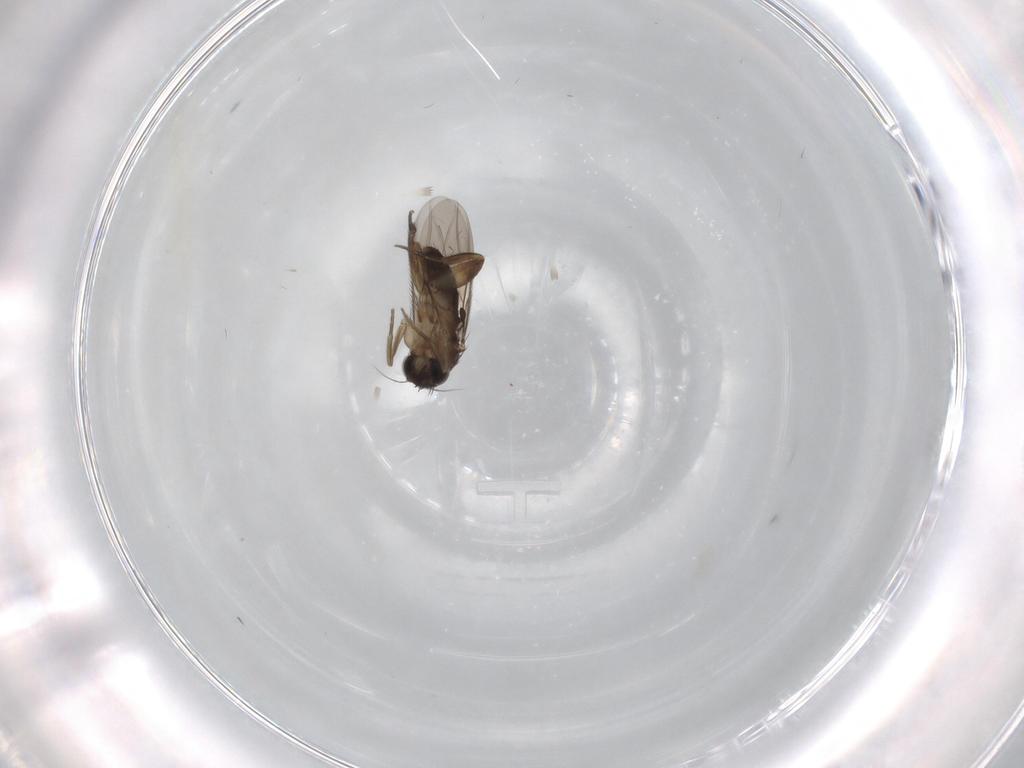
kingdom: Animalia
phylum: Arthropoda
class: Insecta
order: Diptera
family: Phoridae
